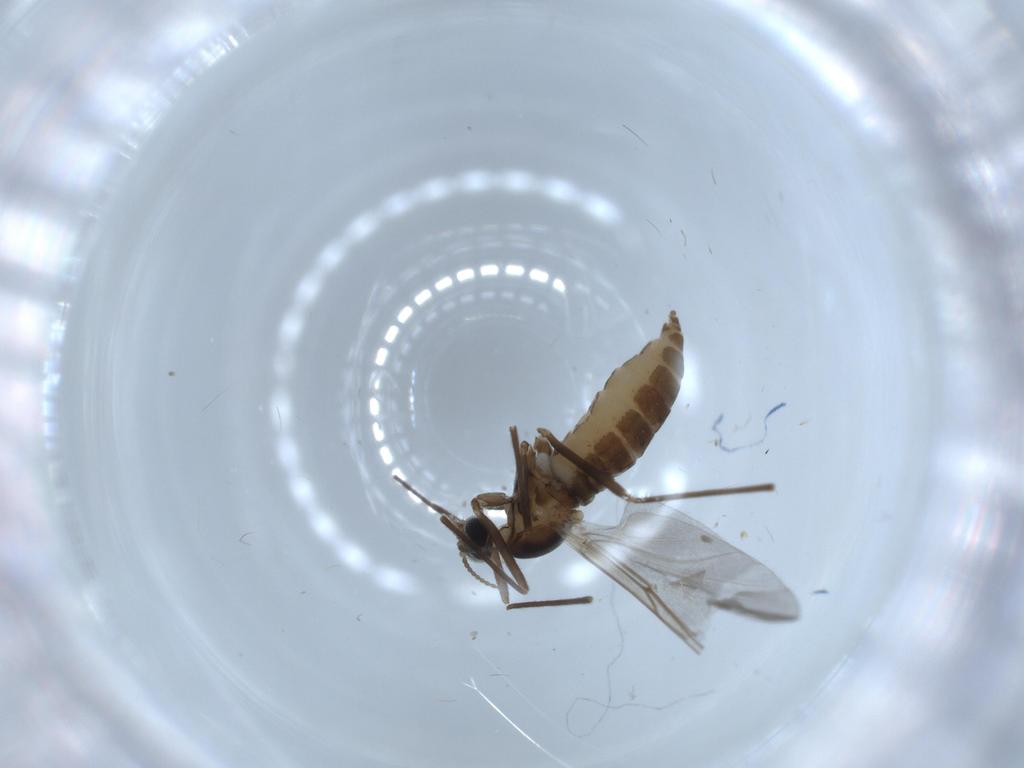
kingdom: Animalia
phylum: Arthropoda
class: Insecta
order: Diptera
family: Cecidomyiidae
